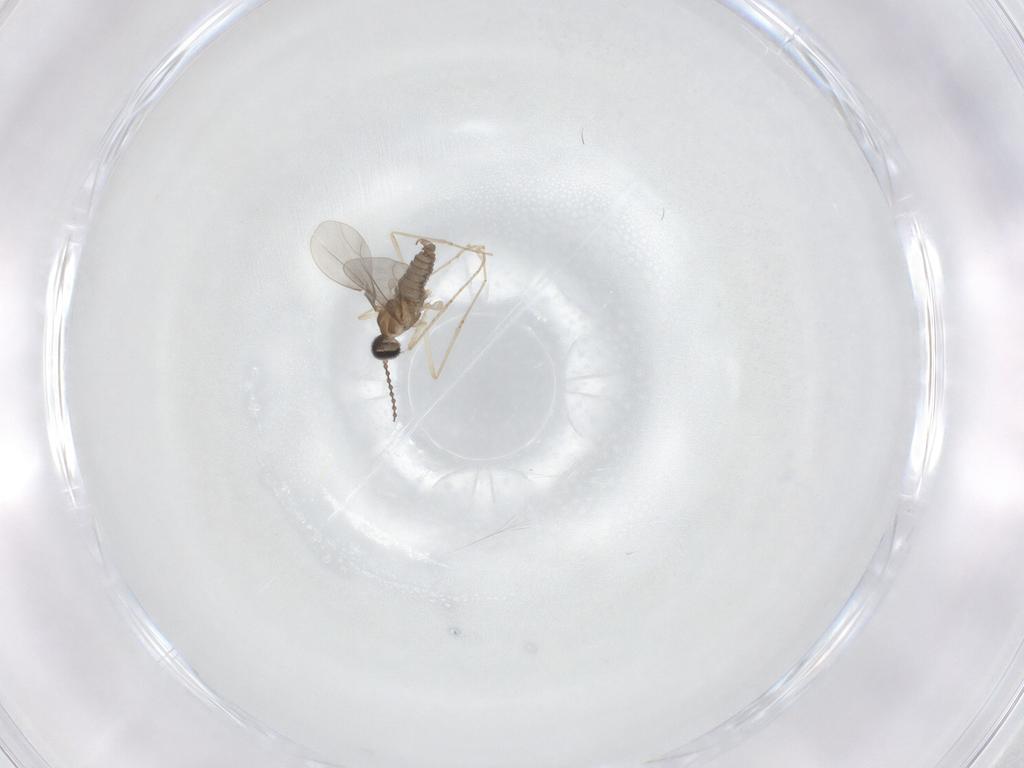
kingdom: Animalia
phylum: Arthropoda
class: Insecta
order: Diptera
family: Cecidomyiidae
